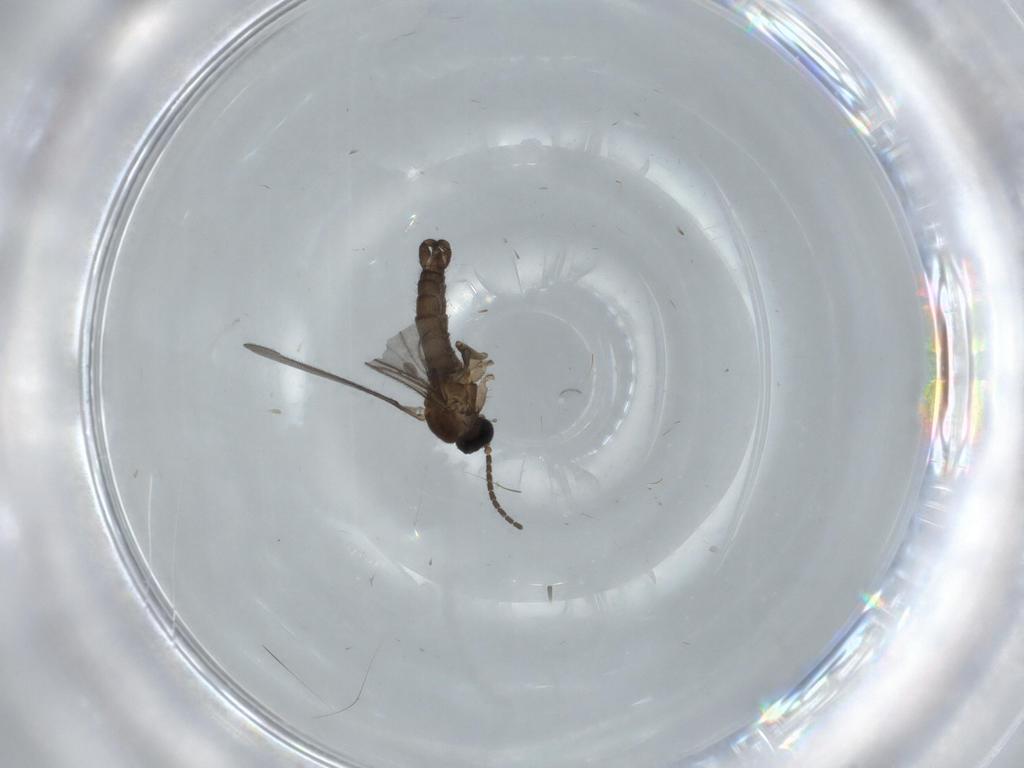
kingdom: Animalia
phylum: Arthropoda
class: Insecta
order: Diptera
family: Sciaridae
